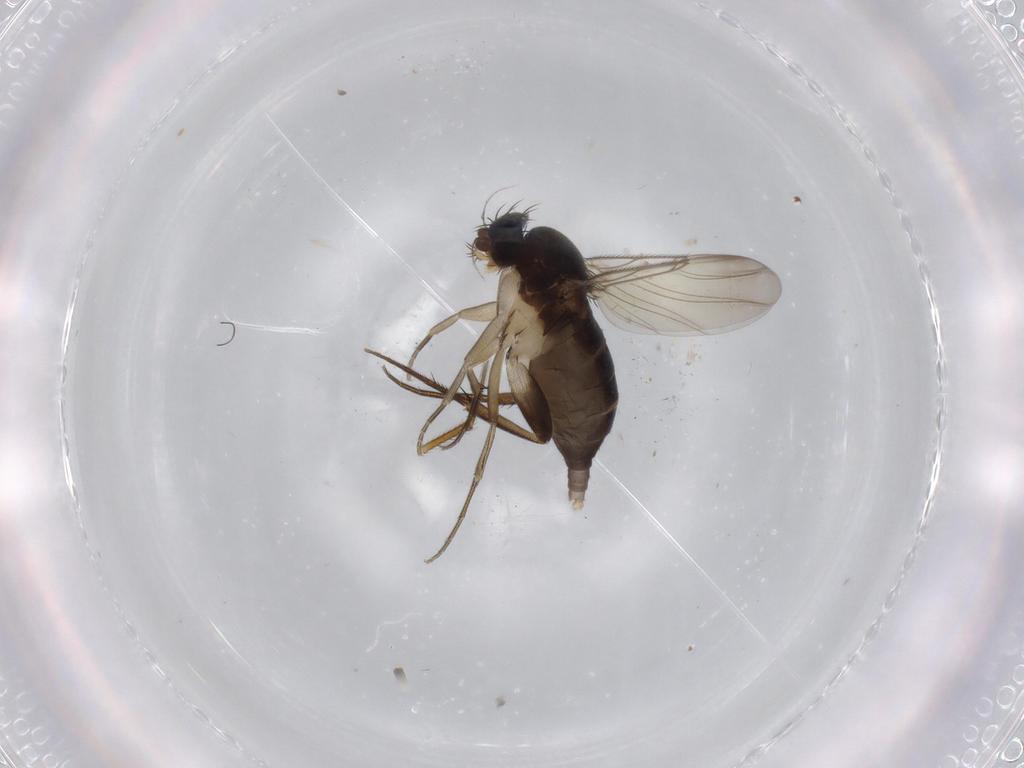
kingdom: Animalia
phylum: Arthropoda
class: Insecta
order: Diptera
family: Phoridae
